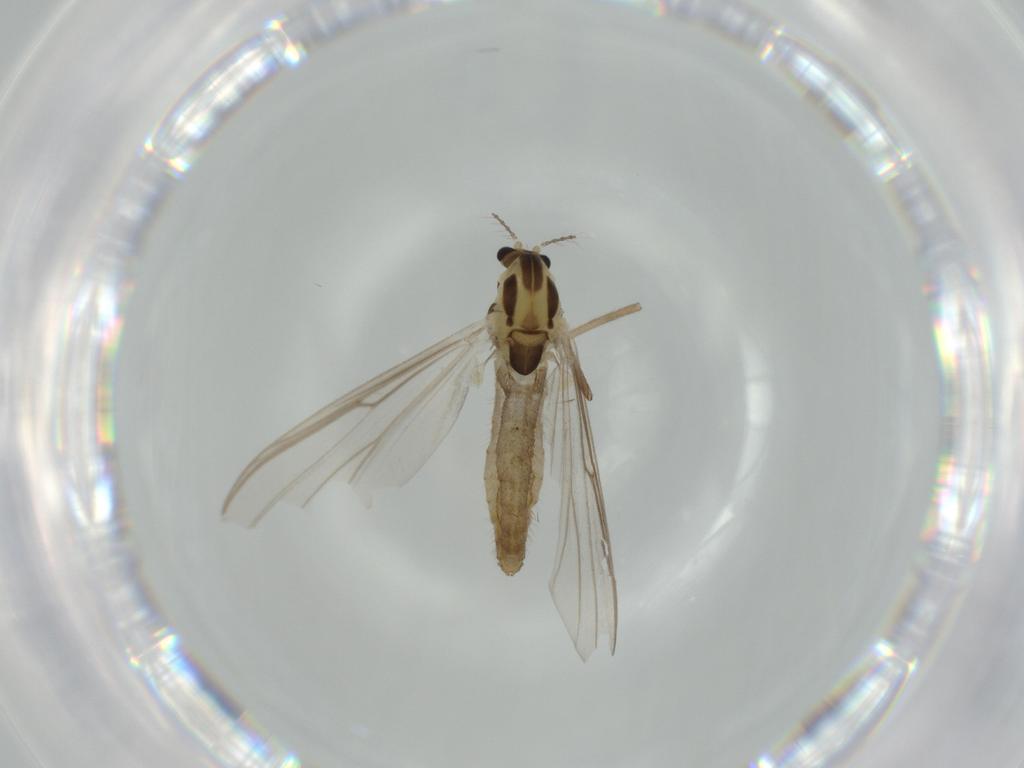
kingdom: Animalia
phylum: Arthropoda
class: Insecta
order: Diptera
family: Chironomidae
